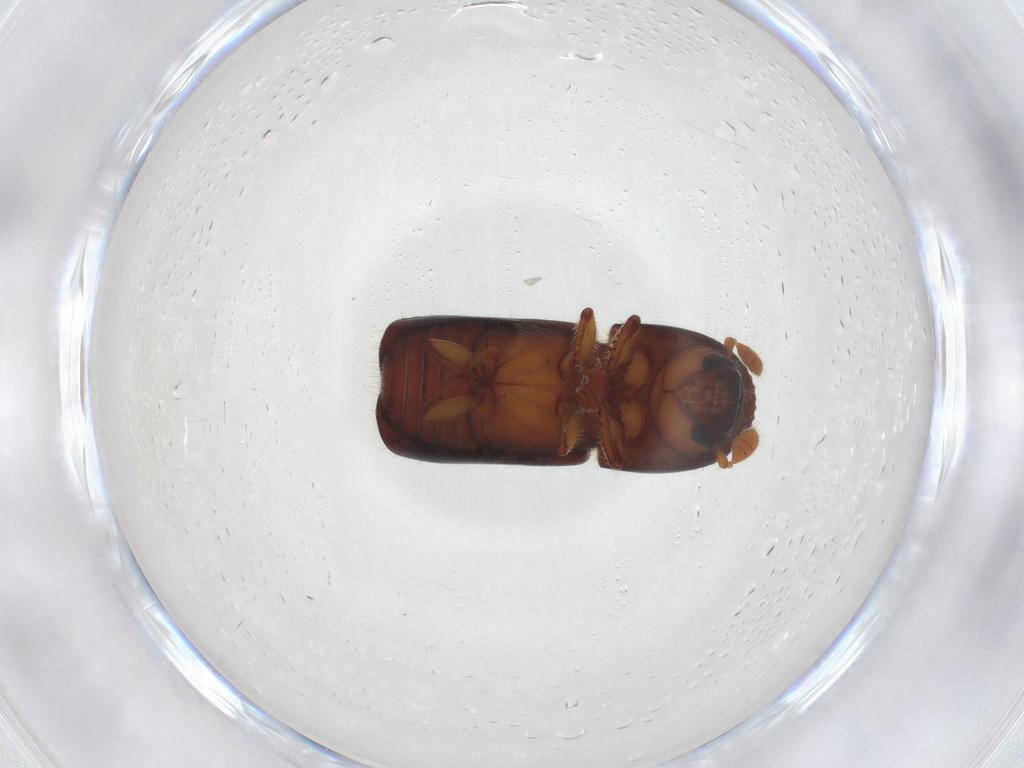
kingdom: Animalia
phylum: Arthropoda
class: Insecta
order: Coleoptera
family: Curculionidae
